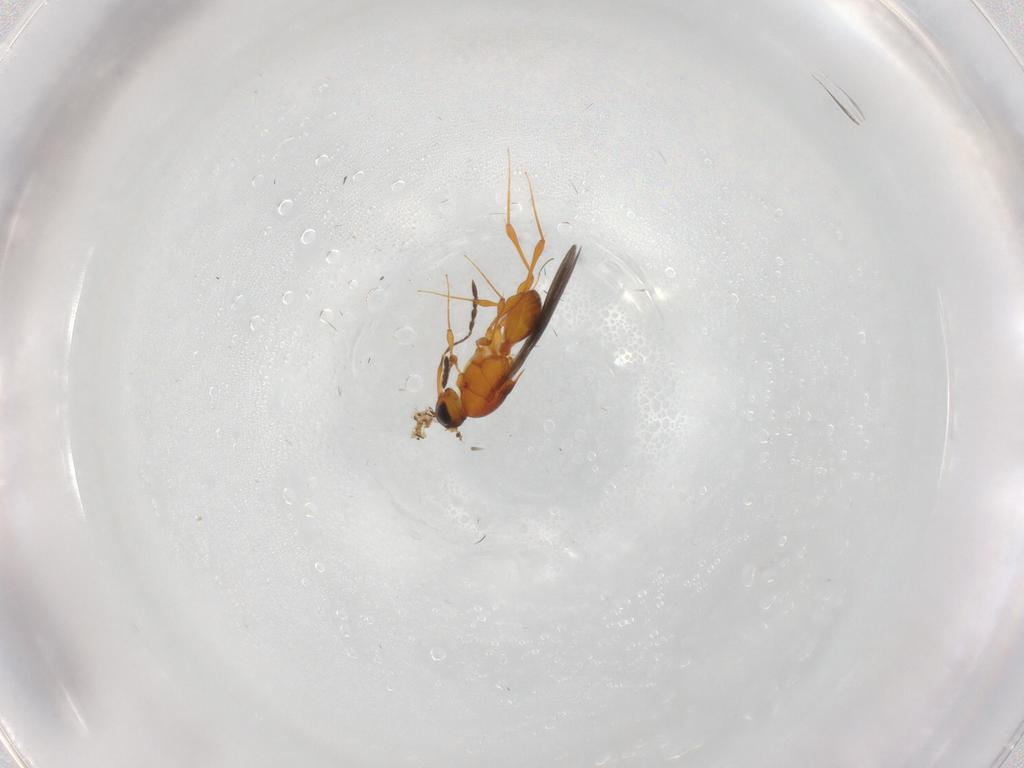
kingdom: Animalia
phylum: Arthropoda
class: Insecta
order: Hymenoptera
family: Platygastridae
